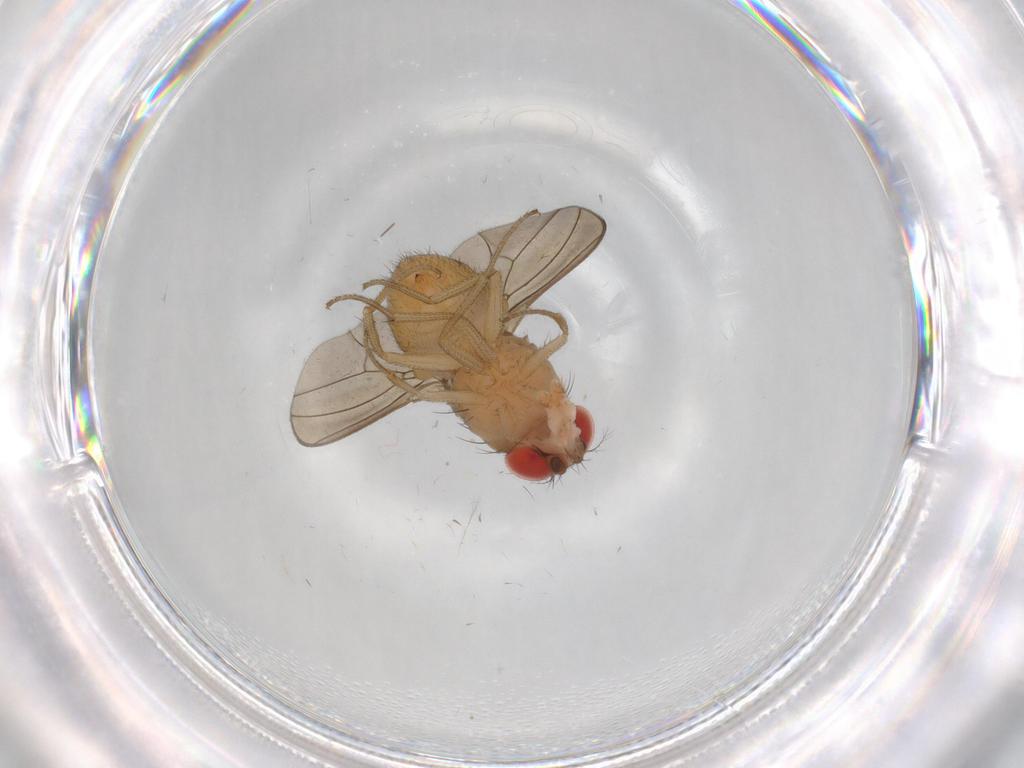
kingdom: Animalia
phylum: Arthropoda
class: Insecta
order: Diptera
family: Drosophilidae
